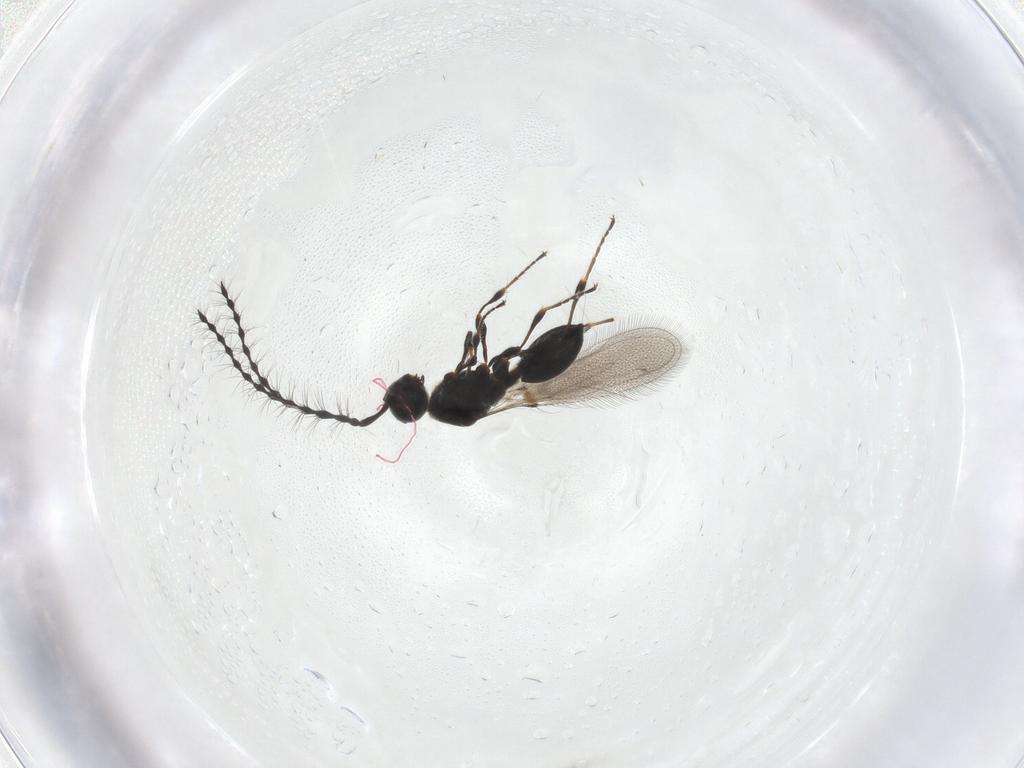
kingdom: Animalia
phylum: Arthropoda
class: Insecta
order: Hymenoptera
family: Diapriidae
